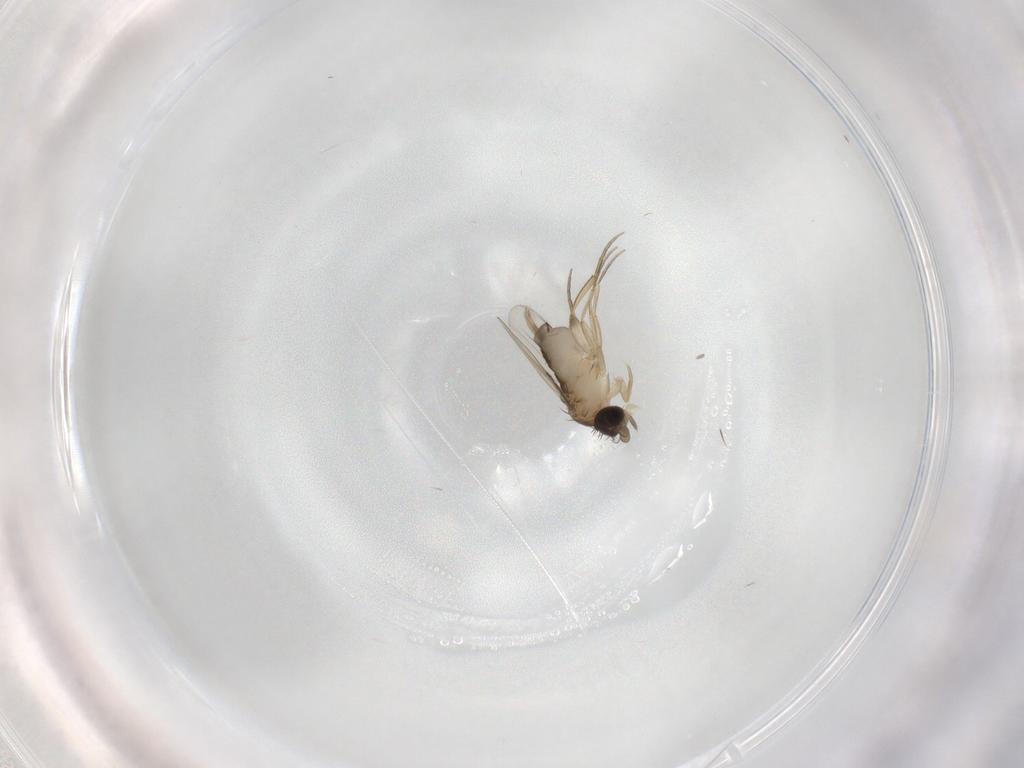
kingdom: Animalia
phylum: Arthropoda
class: Insecta
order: Diptera
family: Phoridae
